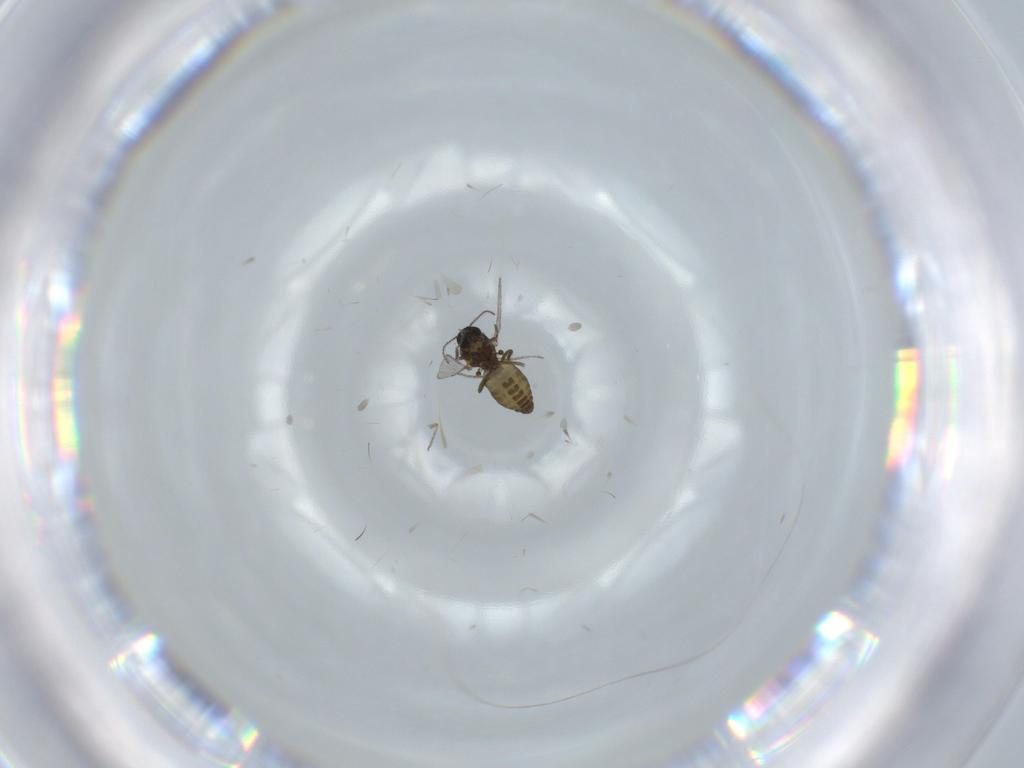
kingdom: Animalia
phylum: Arthropoda
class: Insecta
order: Diptera
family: Ceratopogonidae
